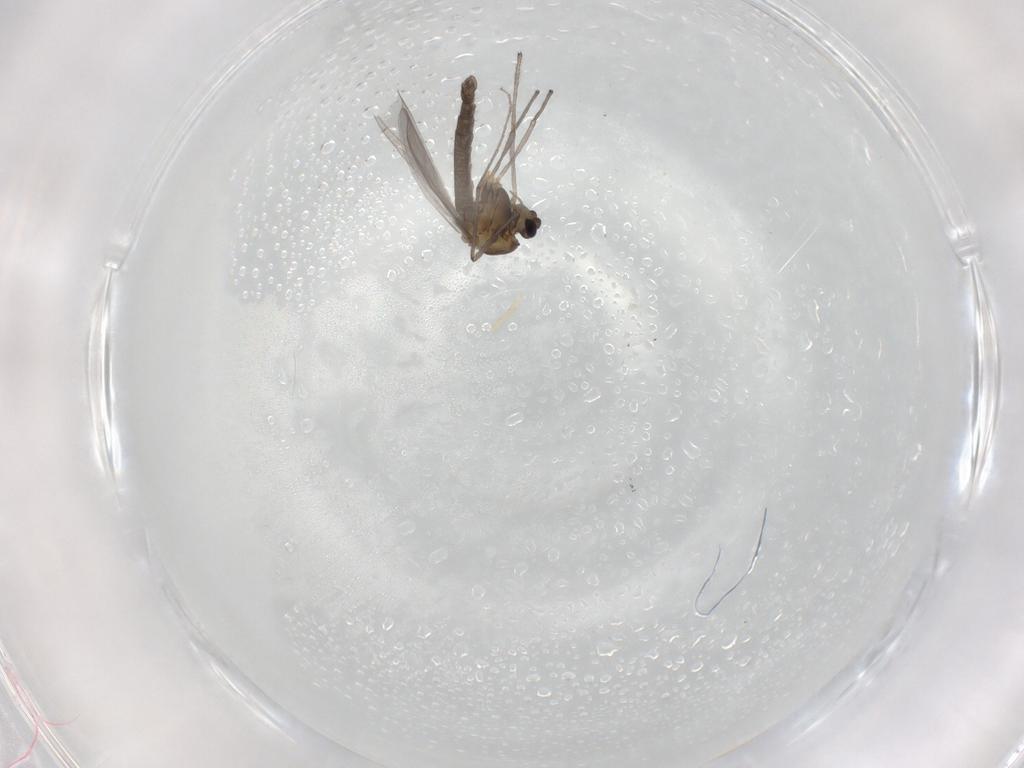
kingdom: Animalia
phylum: Arthropoda
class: Insecta
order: Diptera
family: Chironomidae
